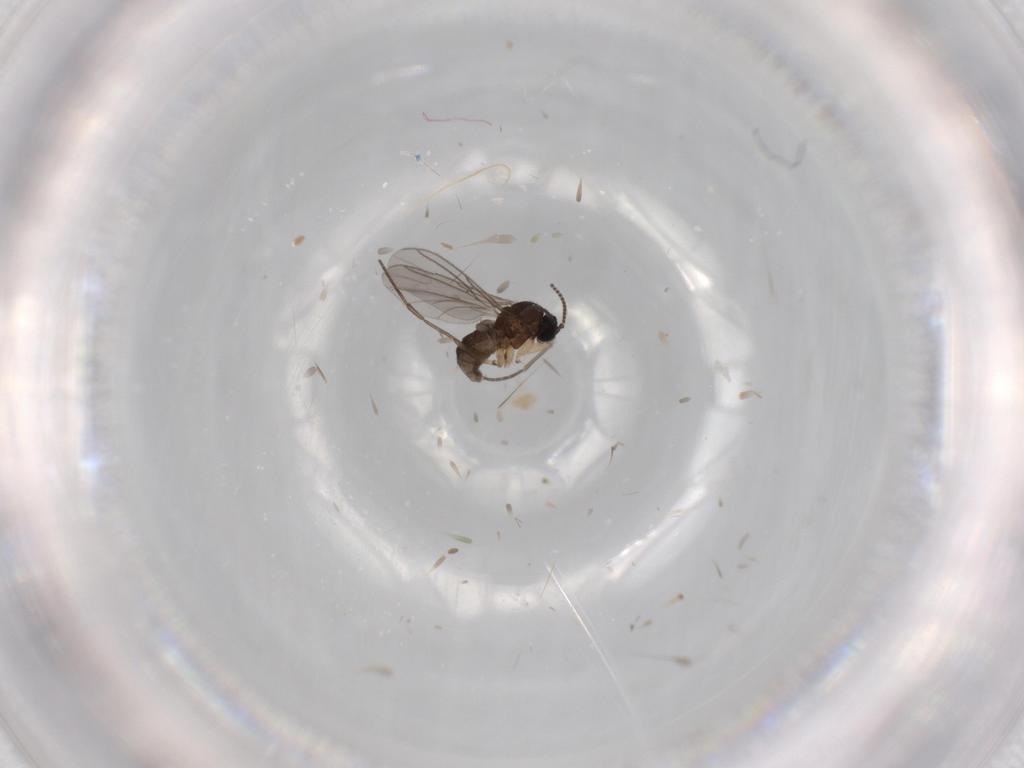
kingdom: Animalia
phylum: Arthropoda
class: Insecta
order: Diptera
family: Sciaridae
